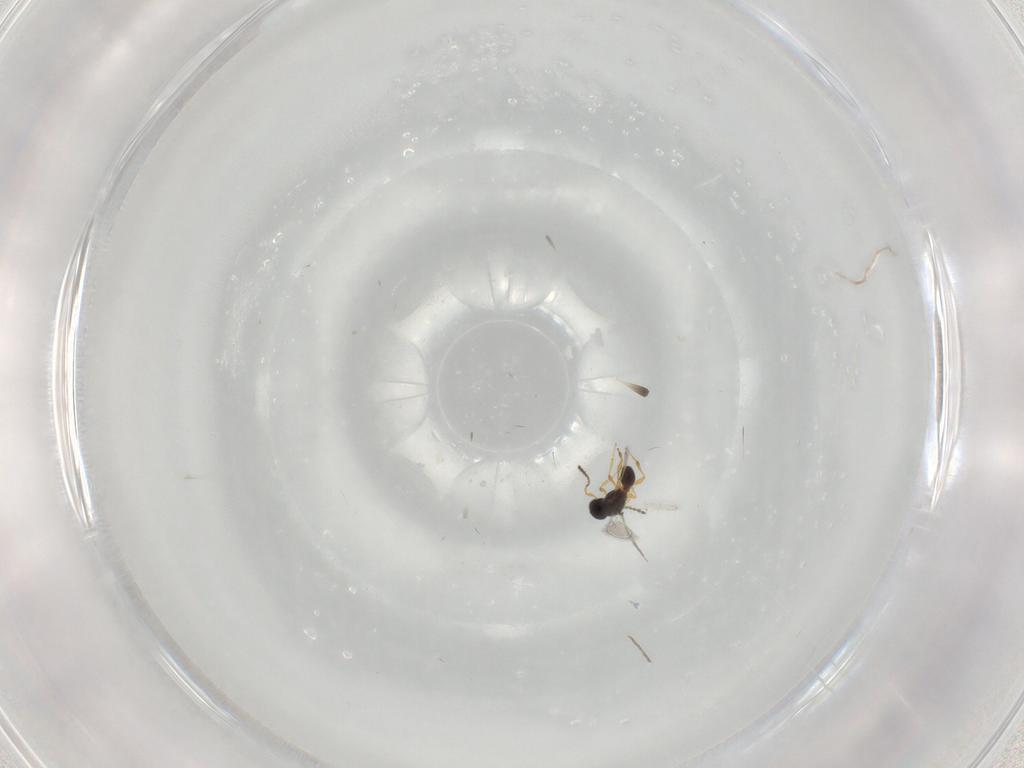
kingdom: Animalia
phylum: Arthropoda
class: Insecta
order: Hymenoptera
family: Platygastridae
